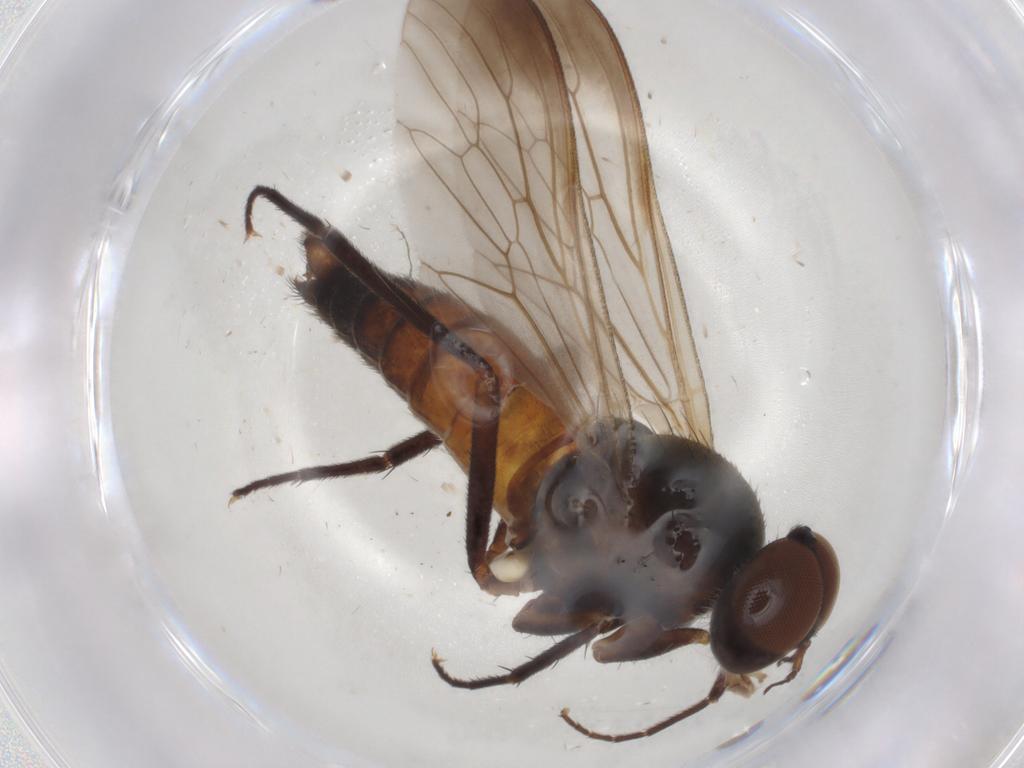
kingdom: Animalia
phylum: Arthropoda
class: Insecta
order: Diptera
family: Therevidae
